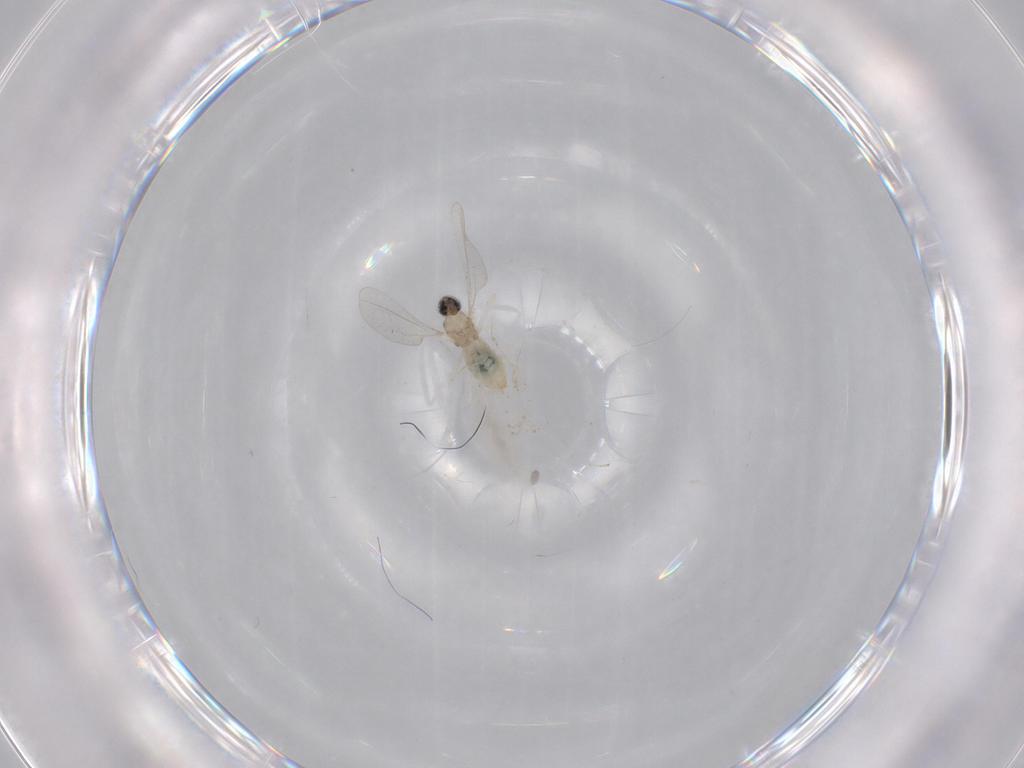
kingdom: Animalia
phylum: Arthropoda
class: Insecta
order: Diptera
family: Cecidomyiidae
